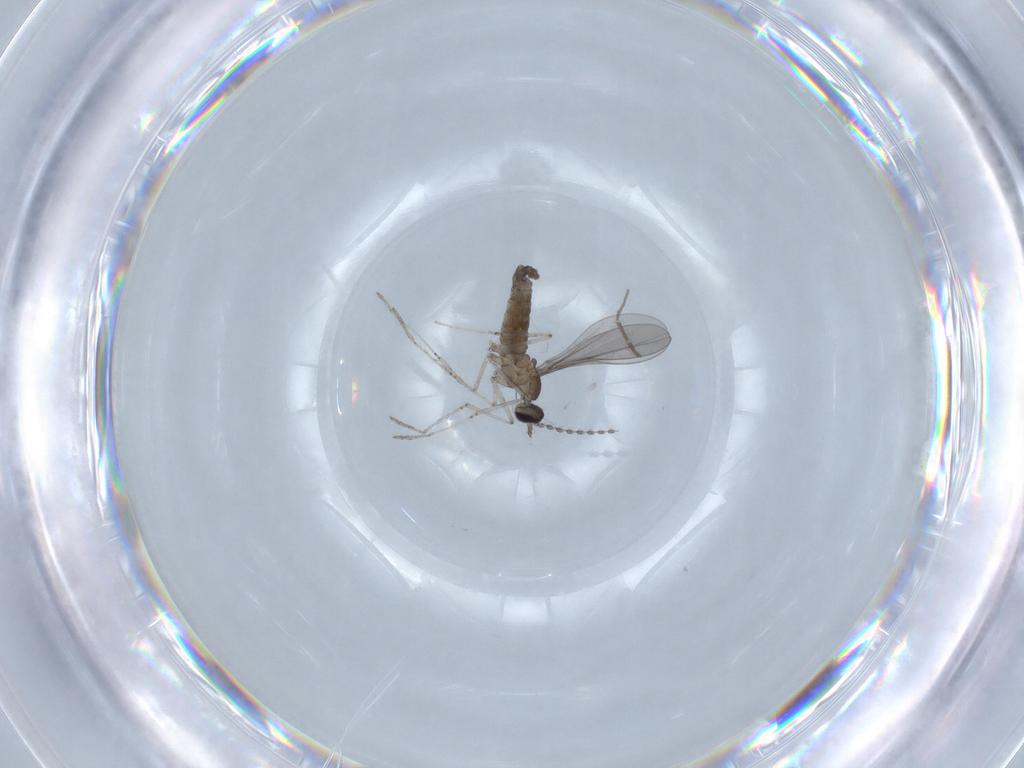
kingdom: Animalia
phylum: Arthropoda
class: Insecta
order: Diptera
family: Cecidomyiidae
